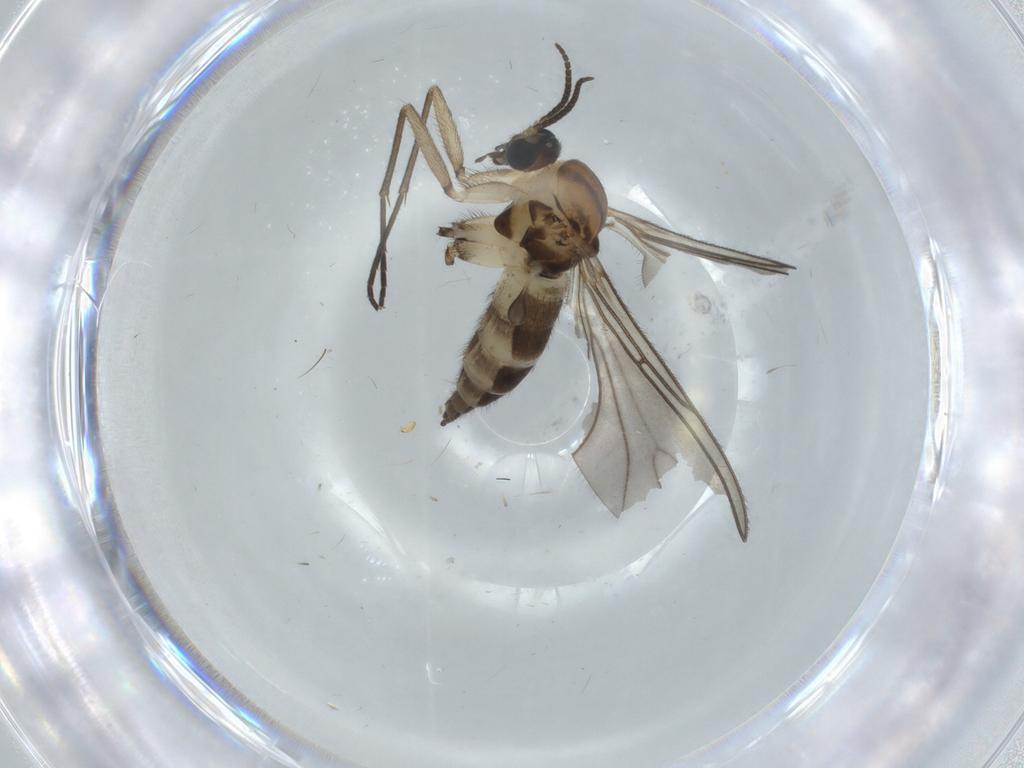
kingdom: Animalia
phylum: Arthropoda
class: Insecta
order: Diptera
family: Sciaridae
